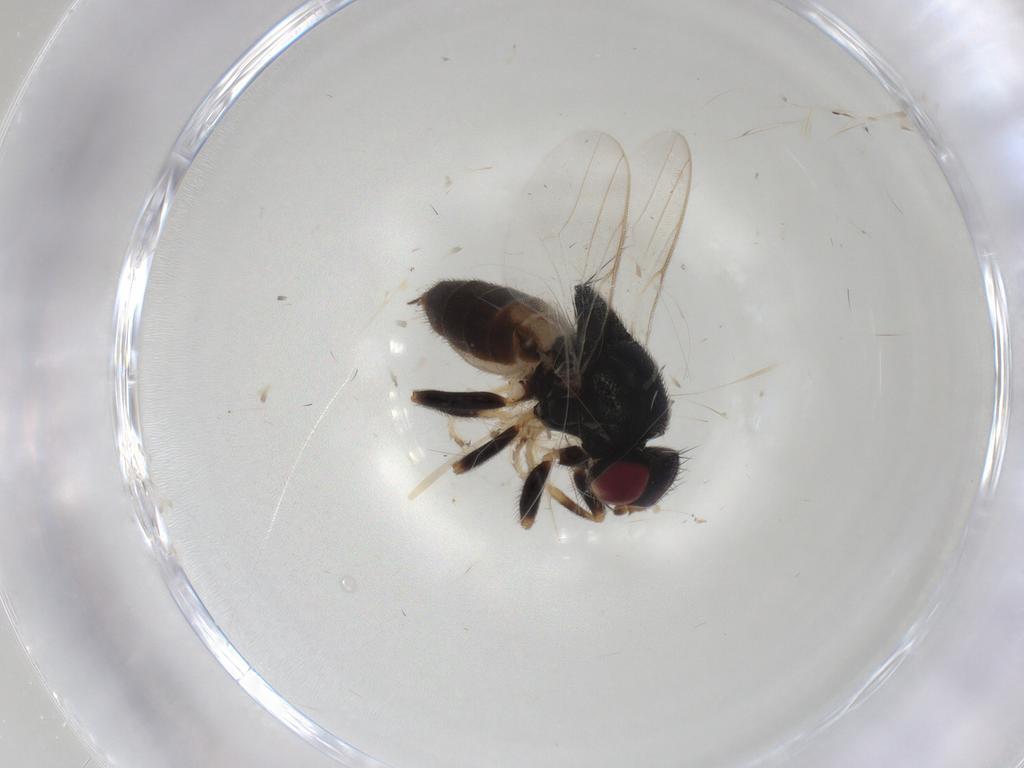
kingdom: Animalia
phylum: Arthropoda
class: Insecta
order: Diptera
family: Chloropidae
